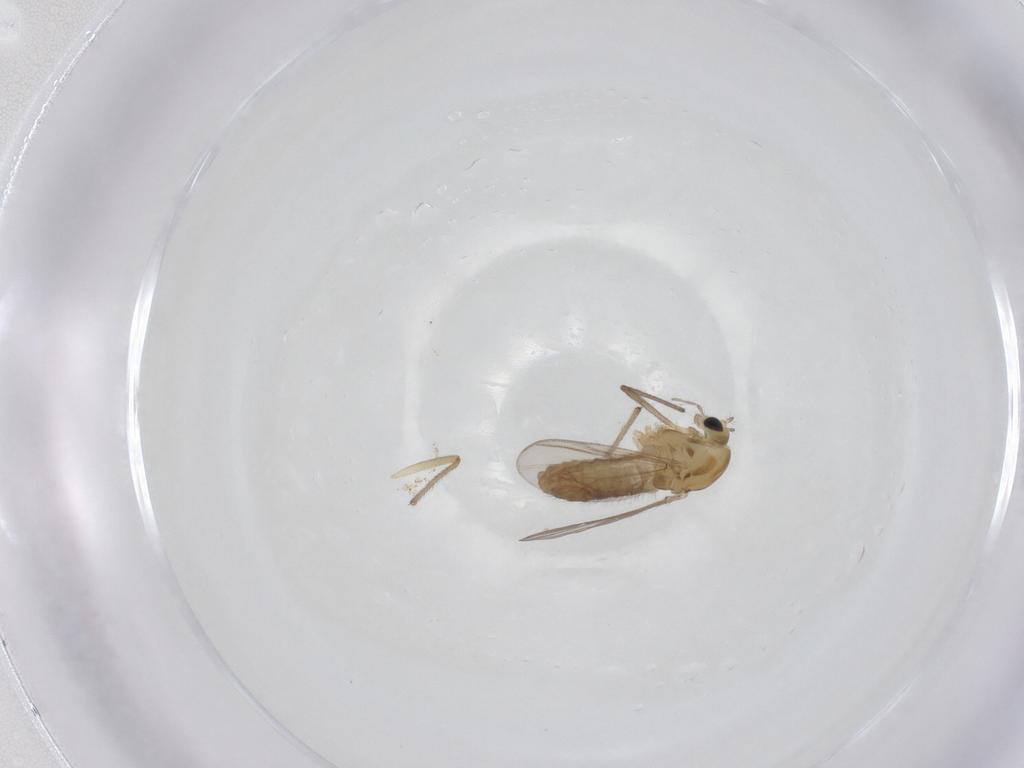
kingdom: Animalia
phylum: Arthropoda
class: Insecta
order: Diptera
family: Chironomidae
